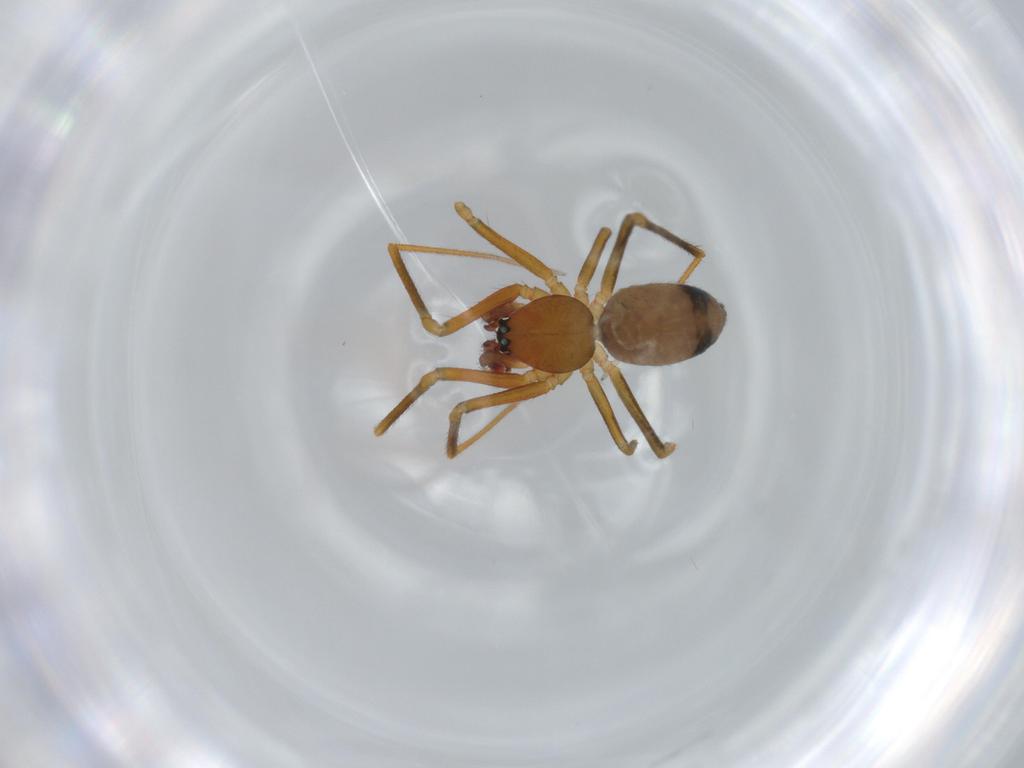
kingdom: Animalia
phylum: Arthropoda
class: Arachnida
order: Araneae
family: Linyphiidae
